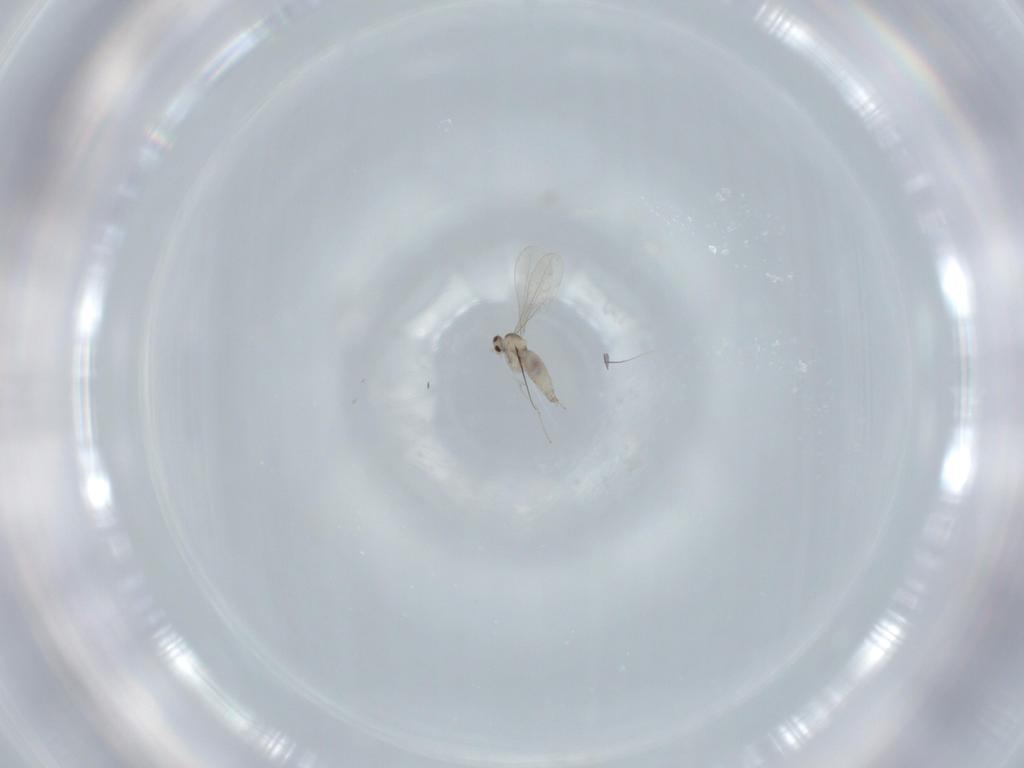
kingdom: Animalia
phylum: Arthropoda
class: Insecta
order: Diptera
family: Cecidomyiidae
